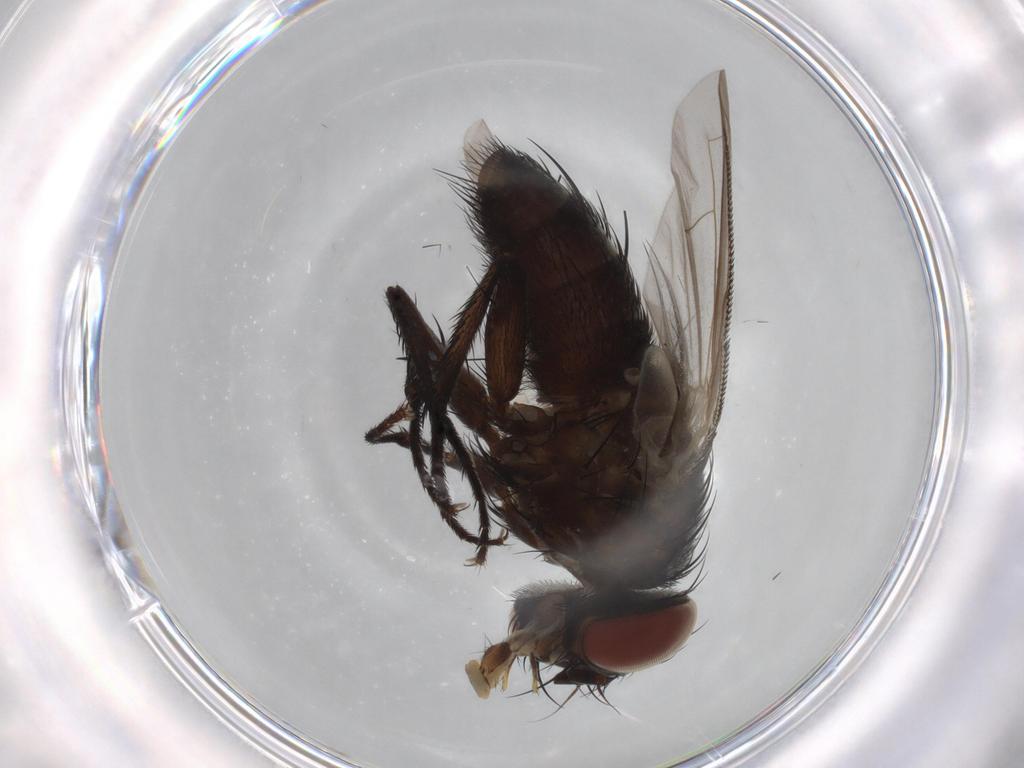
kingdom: Animalia
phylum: Arthropoda
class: Insecta
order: Diptera
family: Sarcophagidae
